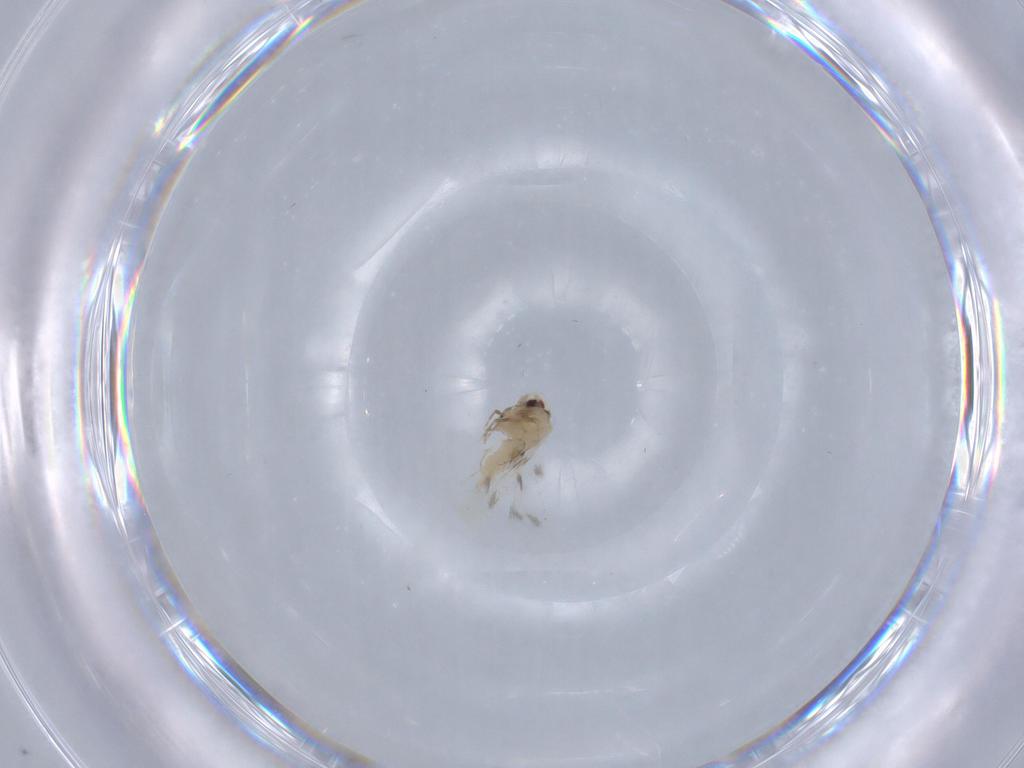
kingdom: Animalia
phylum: Arthropoda
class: Insecta
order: Hemiptera
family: Aleyrodidae
